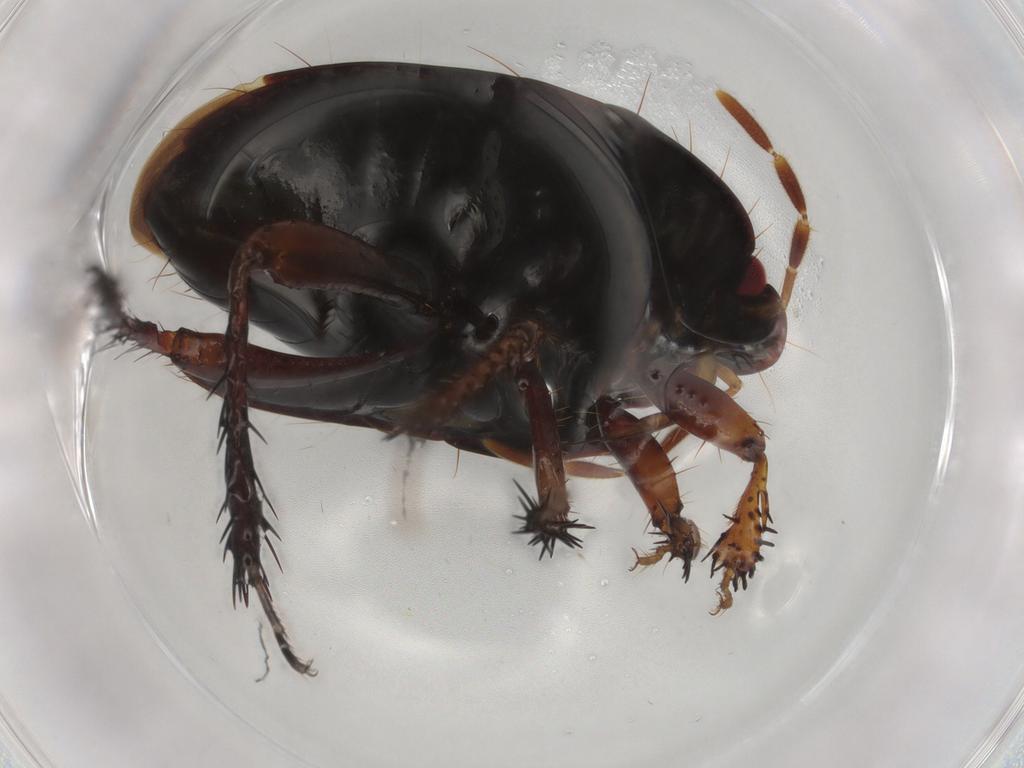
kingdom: Animalia
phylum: Arthropoda
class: Insecta
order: Hemiptera
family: Cydnidae
